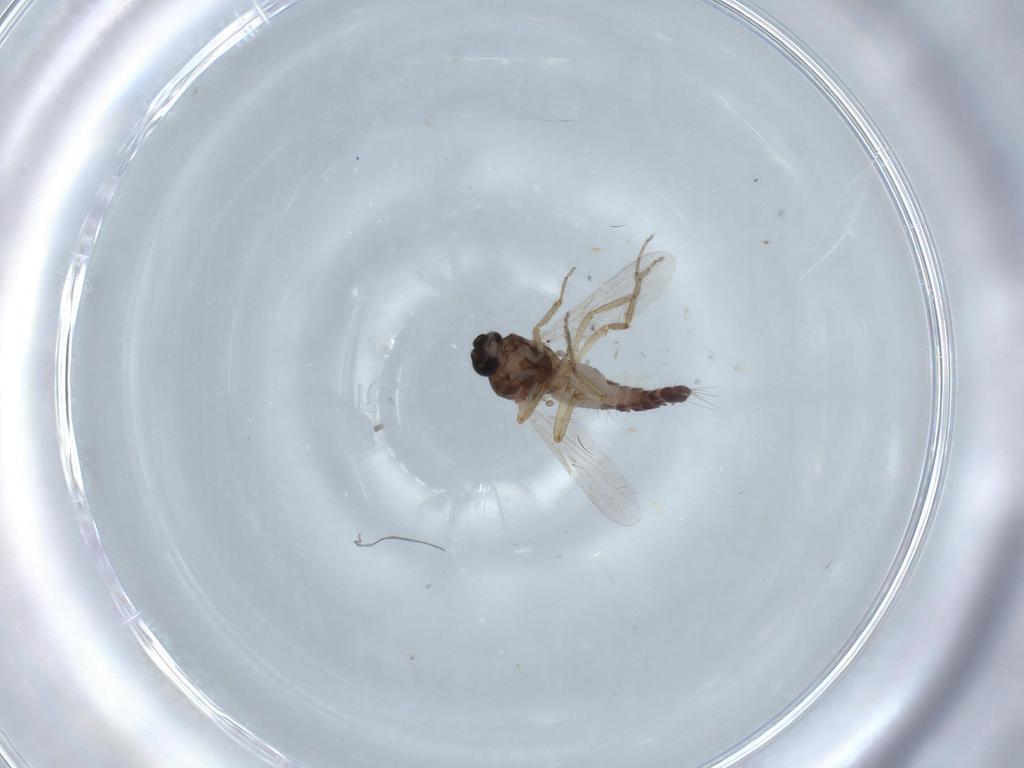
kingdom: Animalia
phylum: Arthropoda
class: Insecta
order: Diptera
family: Ceratopogonidae
